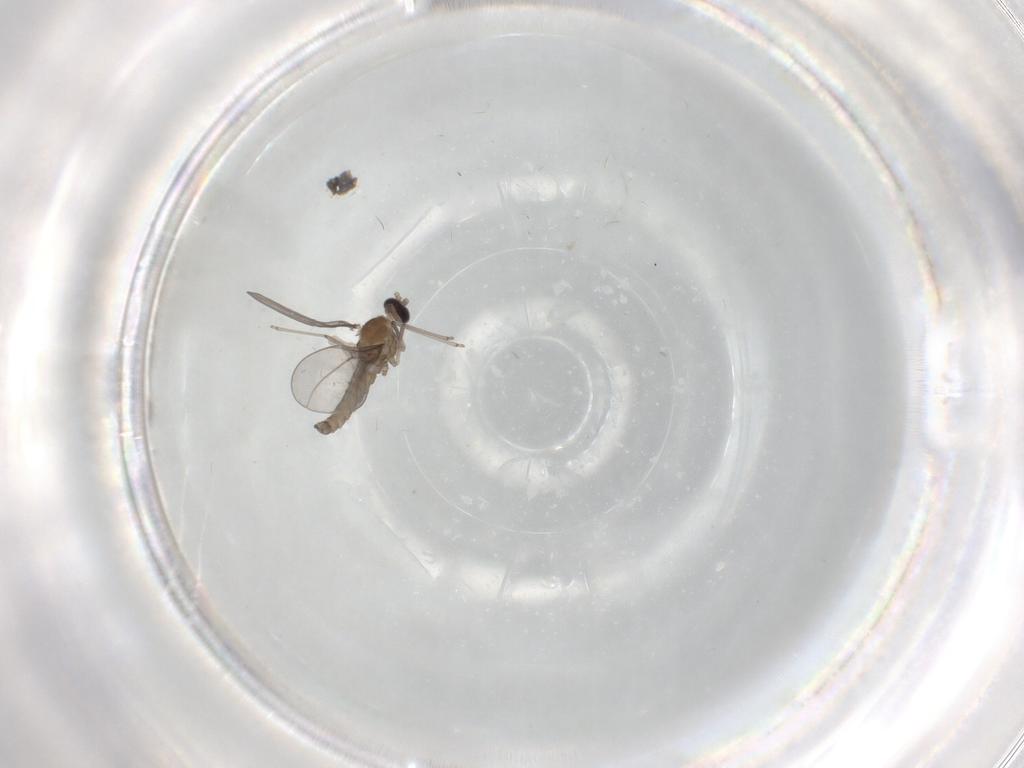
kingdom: Animalia
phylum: Arthropoda
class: Insecta
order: Diptera
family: Cecidomyiidae
